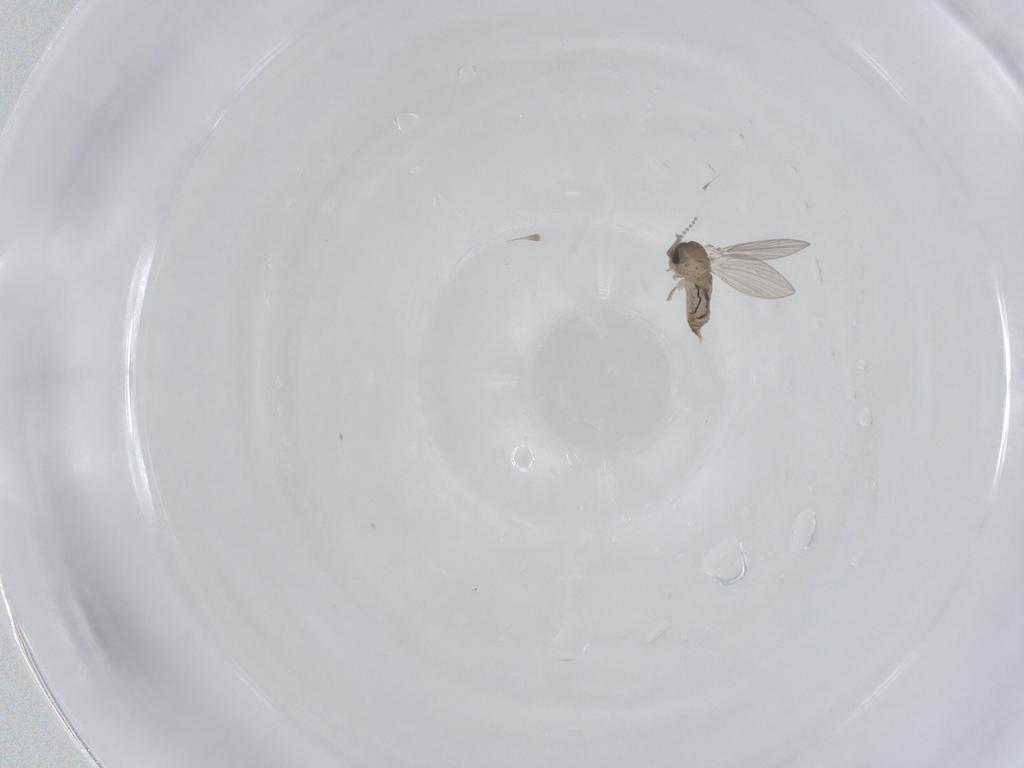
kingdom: Animalia
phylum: Arthropoda
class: Insecta
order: Diptera
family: Psychodidae
